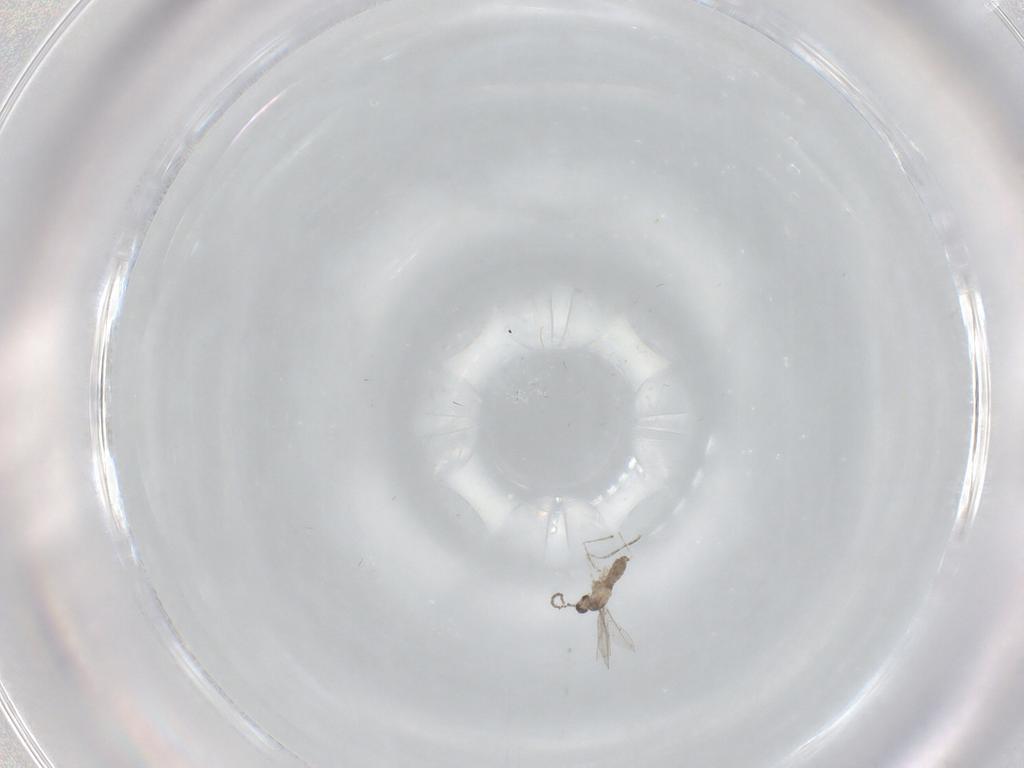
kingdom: Animalia
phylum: Arthropoda
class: Insecta
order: Diptera
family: Cecidomyiidae
